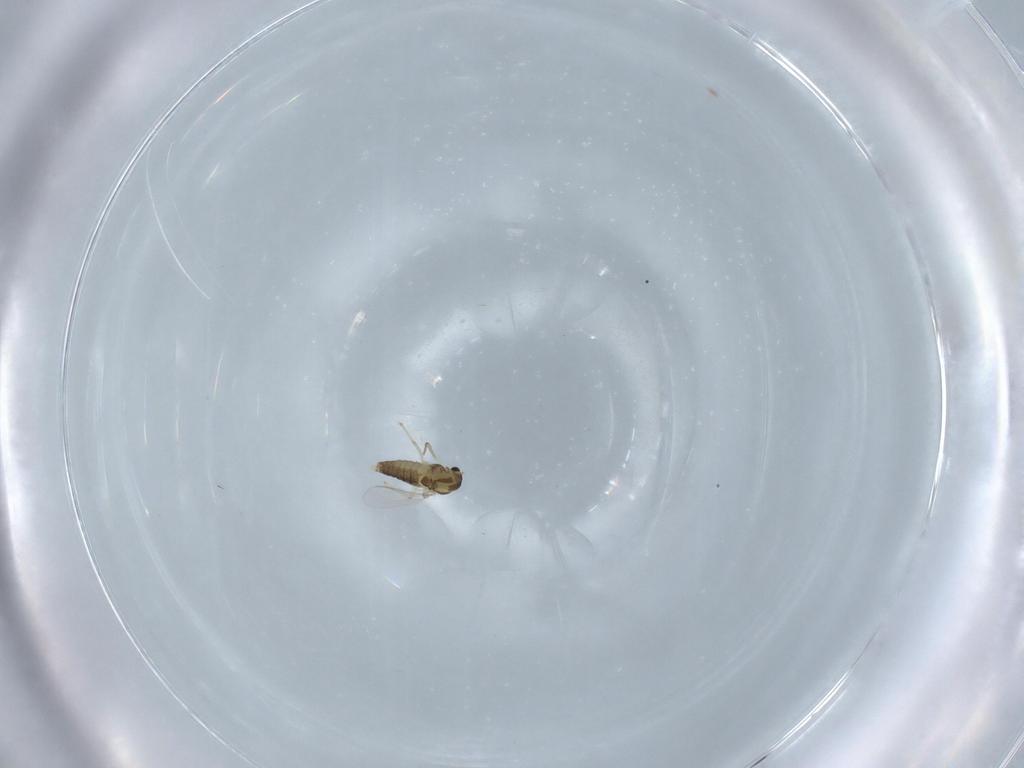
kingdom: Animalia
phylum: Arthropoda
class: Insecta
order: Diptera
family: Chironomidae
